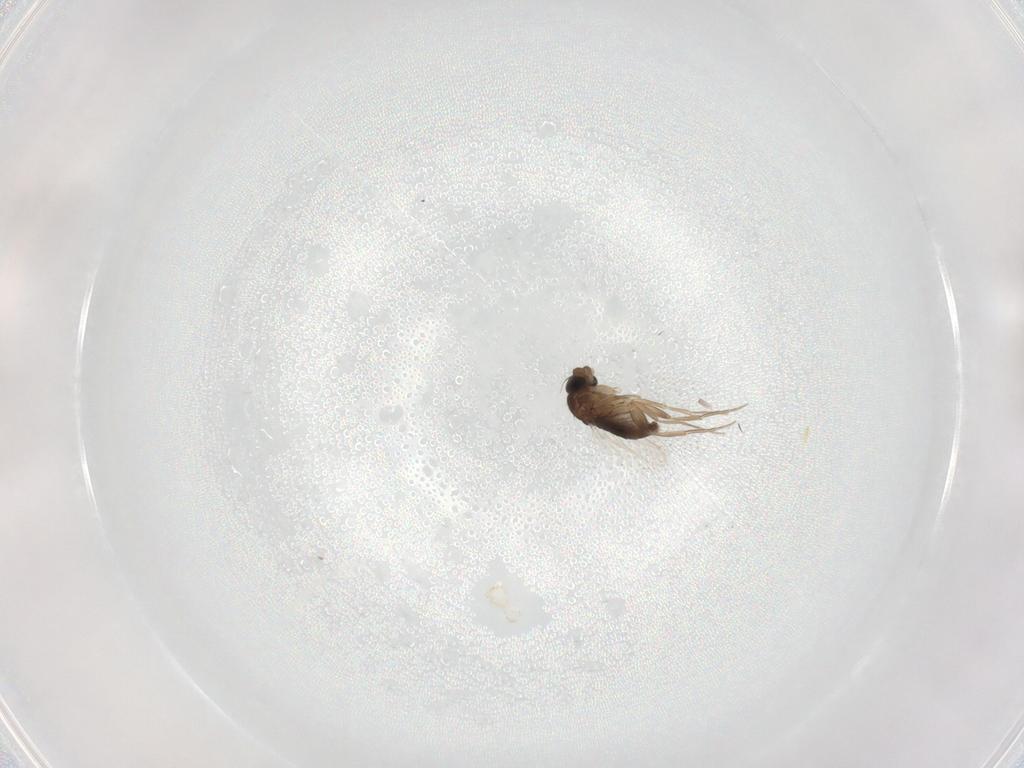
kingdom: Animalia
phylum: Arthropoda
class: Insecta
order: Diptera
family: Phoridae
